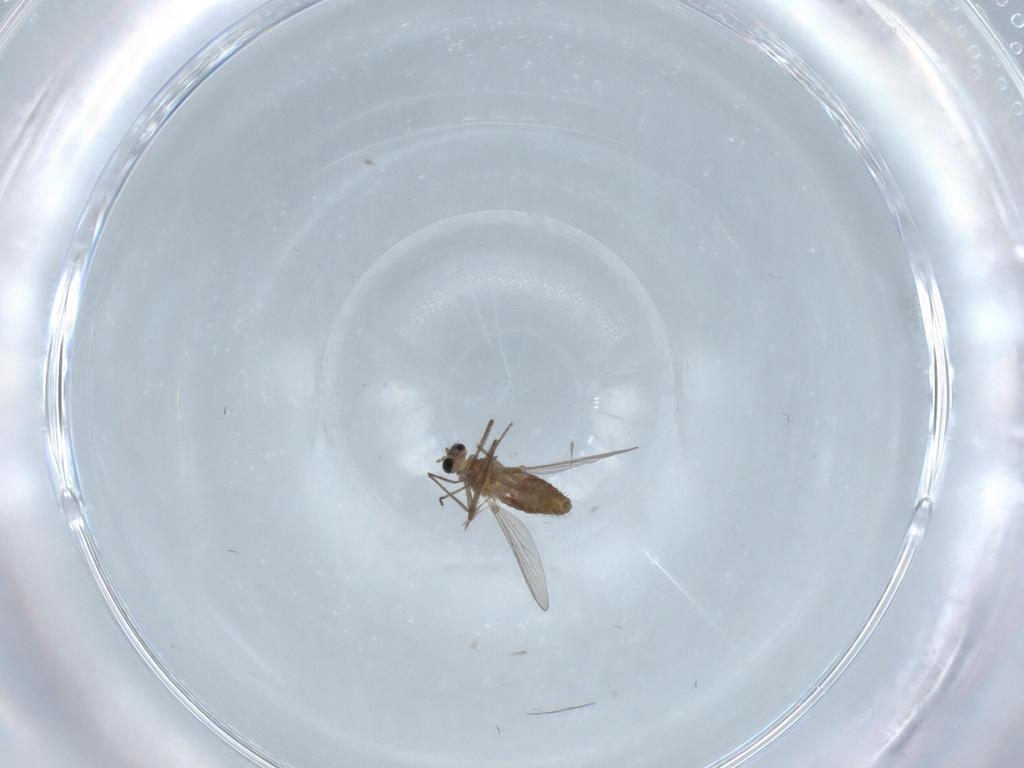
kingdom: Animalia
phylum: Arthropoda
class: Insecta
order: Diptera
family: Chironomidae
